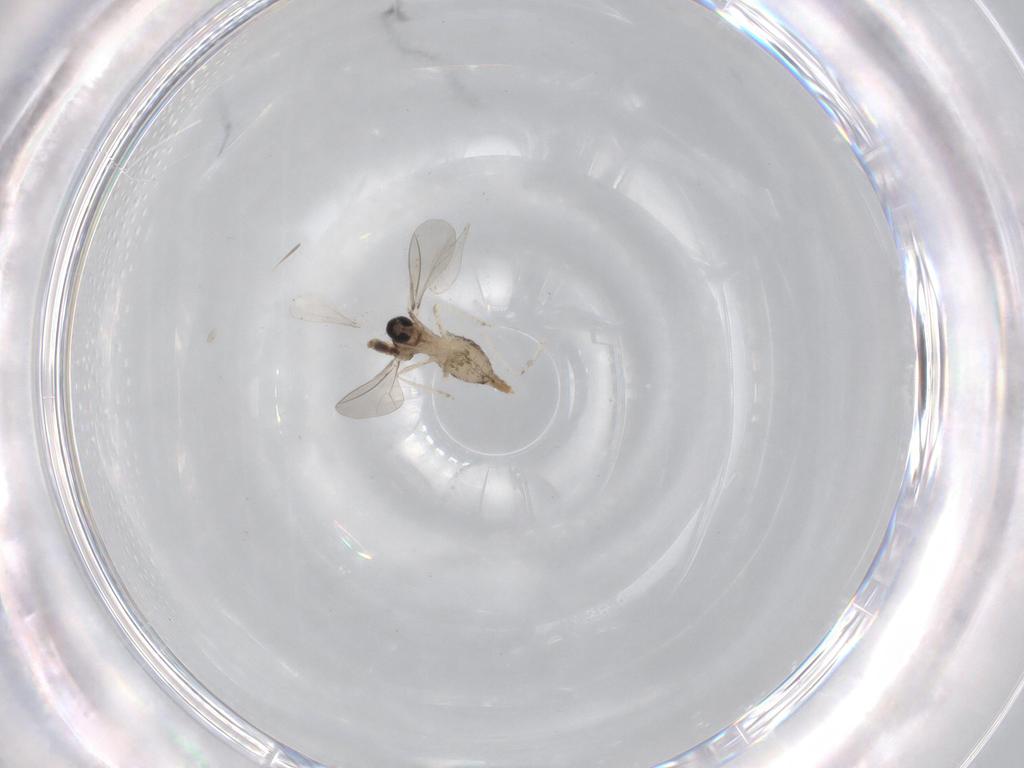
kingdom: Animalia
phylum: Arthropoda
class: Insecta
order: Diptera
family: Cecidomyiidae
